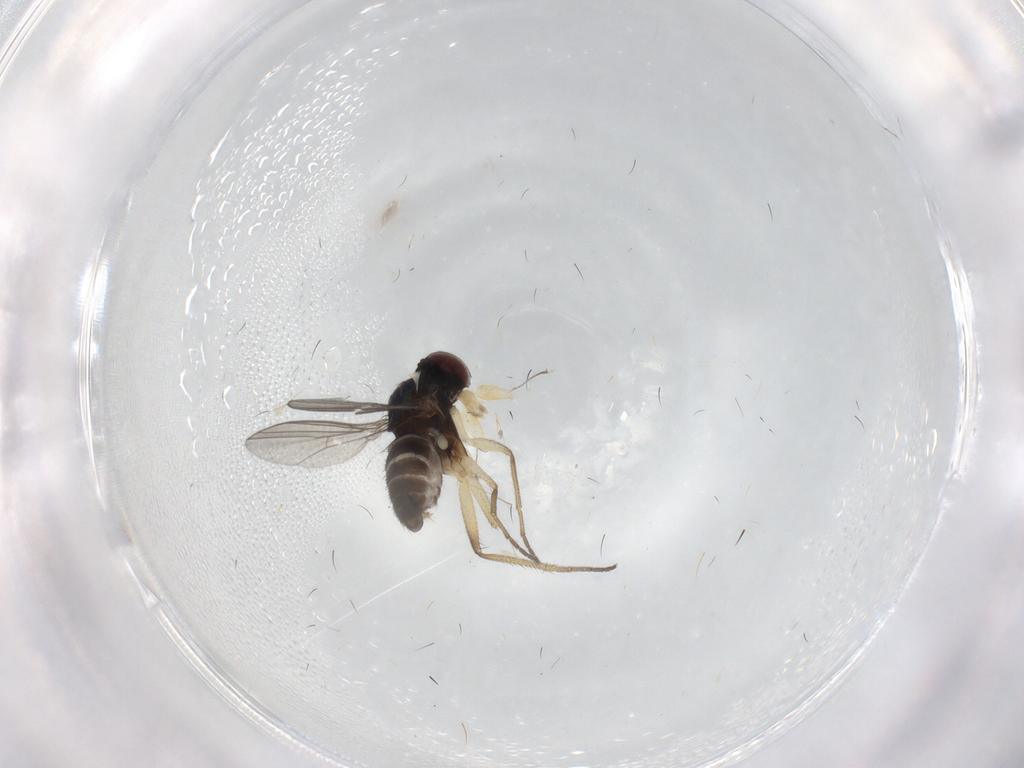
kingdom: Animalia
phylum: Arthropoda
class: Insecta
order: Diptera
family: Dolichopodidae
